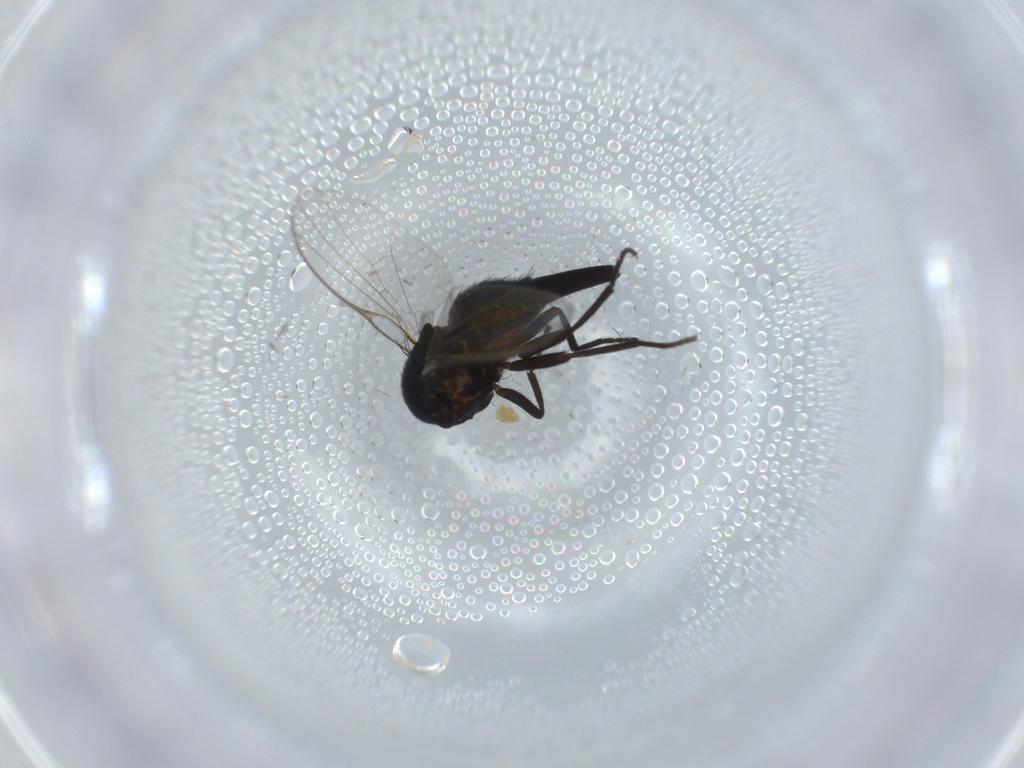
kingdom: Animalia
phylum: Arthropoda
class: Insecta
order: Diptera
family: Agromyzidae
